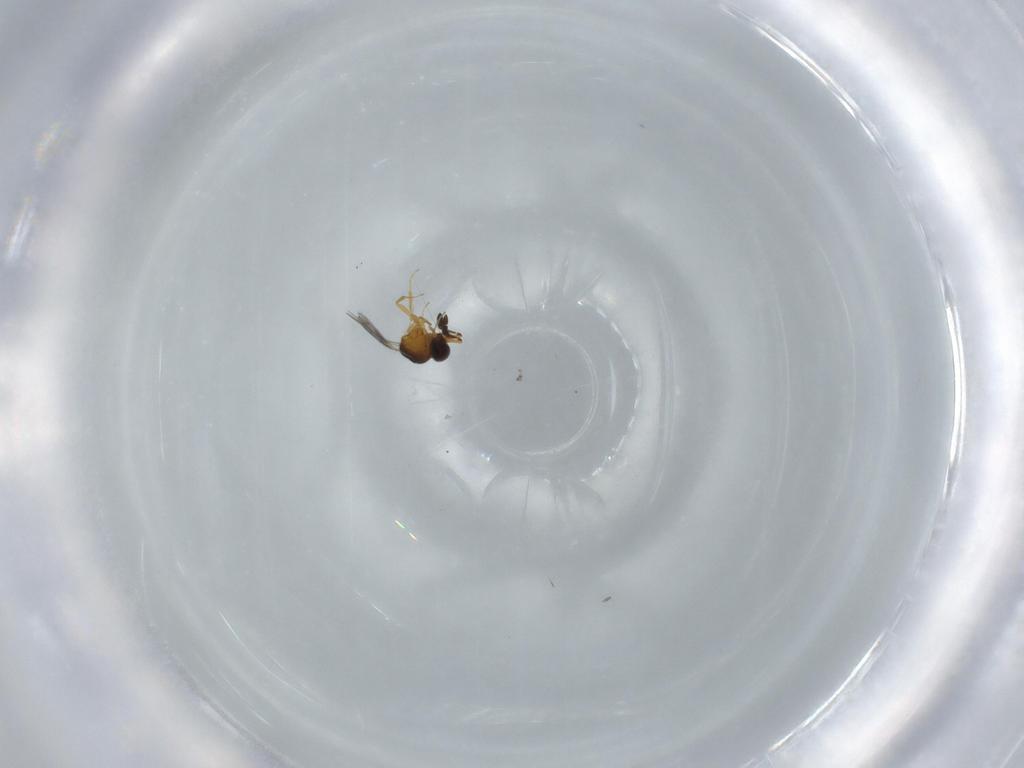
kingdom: Animalia
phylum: Arthropoda
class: Insecta
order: Hymenoptera
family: Ceraphronidae
